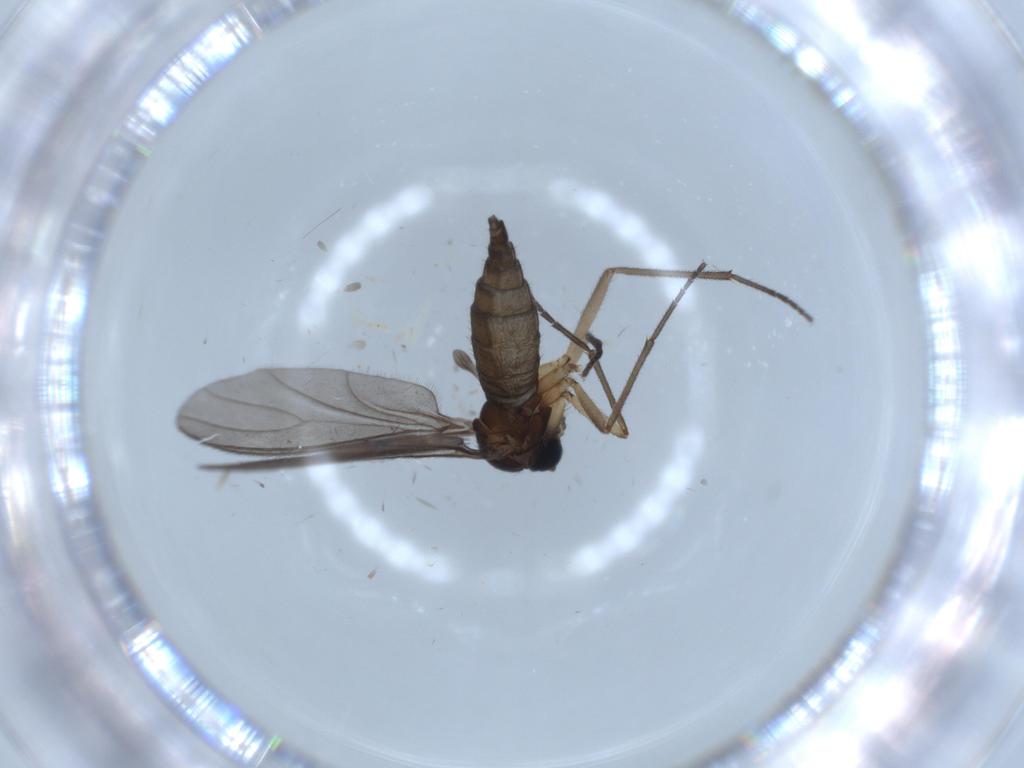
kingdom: Animalia
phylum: Arthropoda
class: Insecta
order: Diptera
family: Sciaridae
